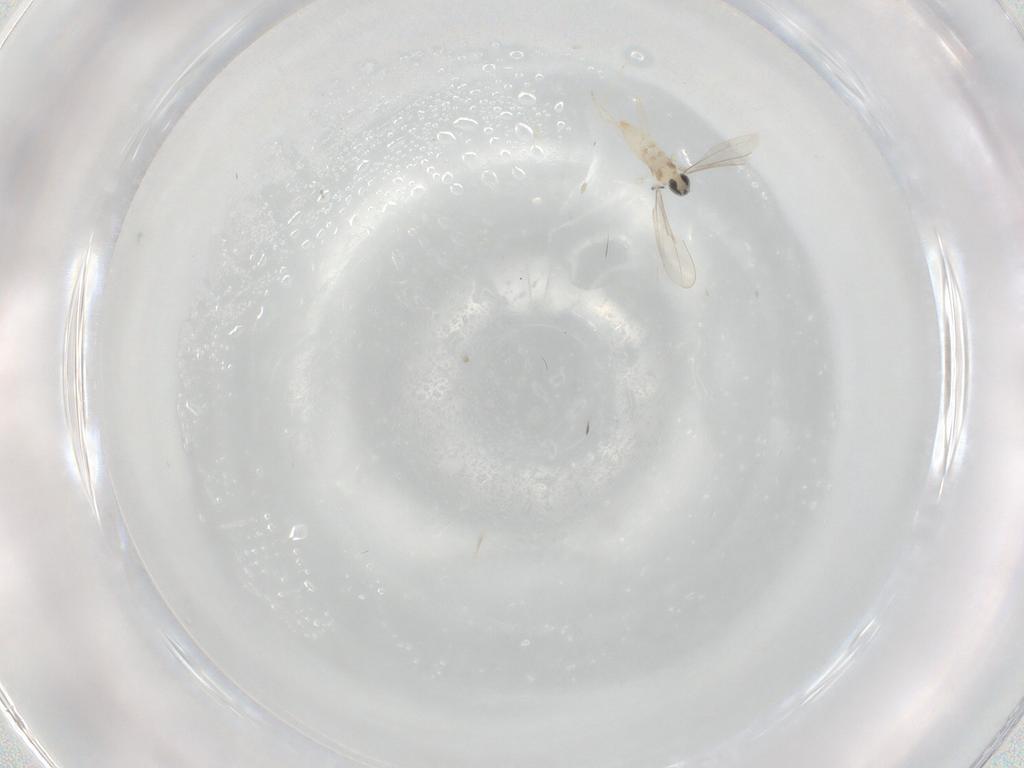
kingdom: Animalia
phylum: Arthropoda
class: Insecta
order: Diptera
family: Cecidomyiidae
